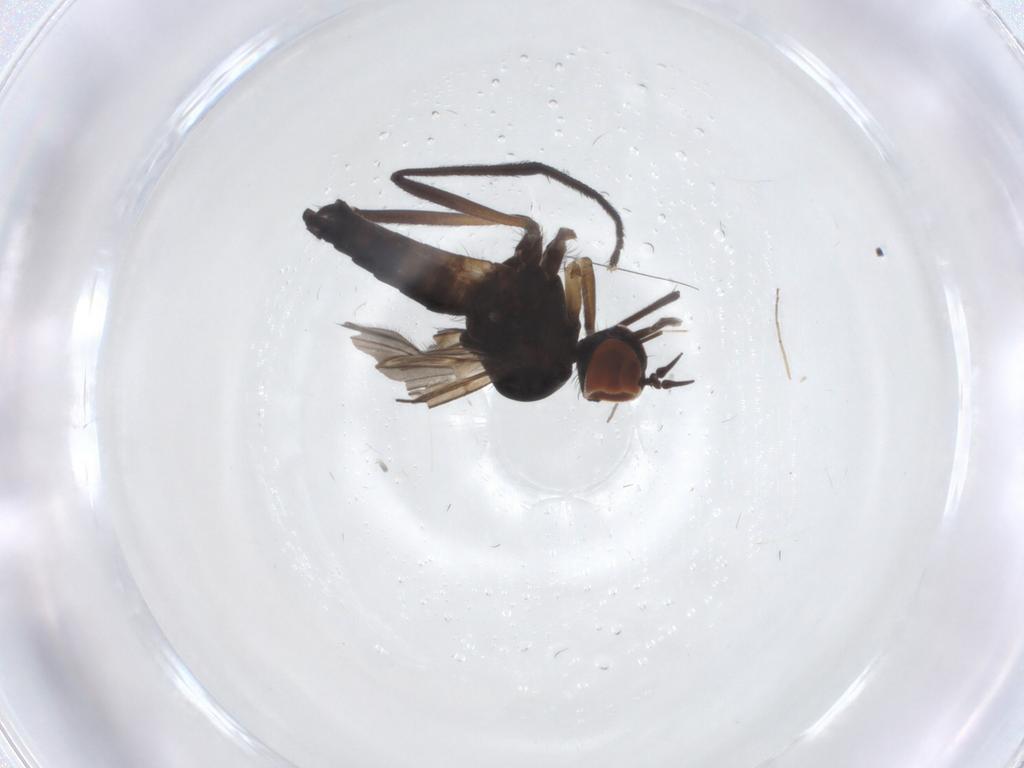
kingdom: Animalia
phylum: Arthropoda
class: Insecta
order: Diptera
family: Empididae
